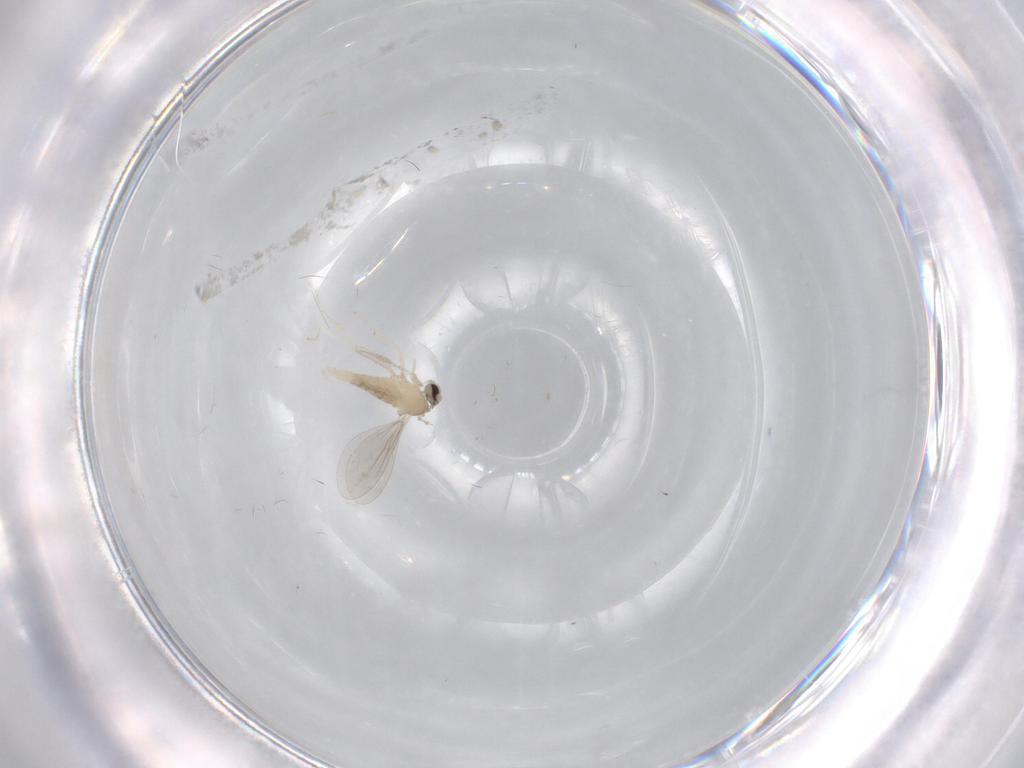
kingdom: Animalia
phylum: Arthropoda
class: Insecta
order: Diptera
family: Cecidomyiidae
